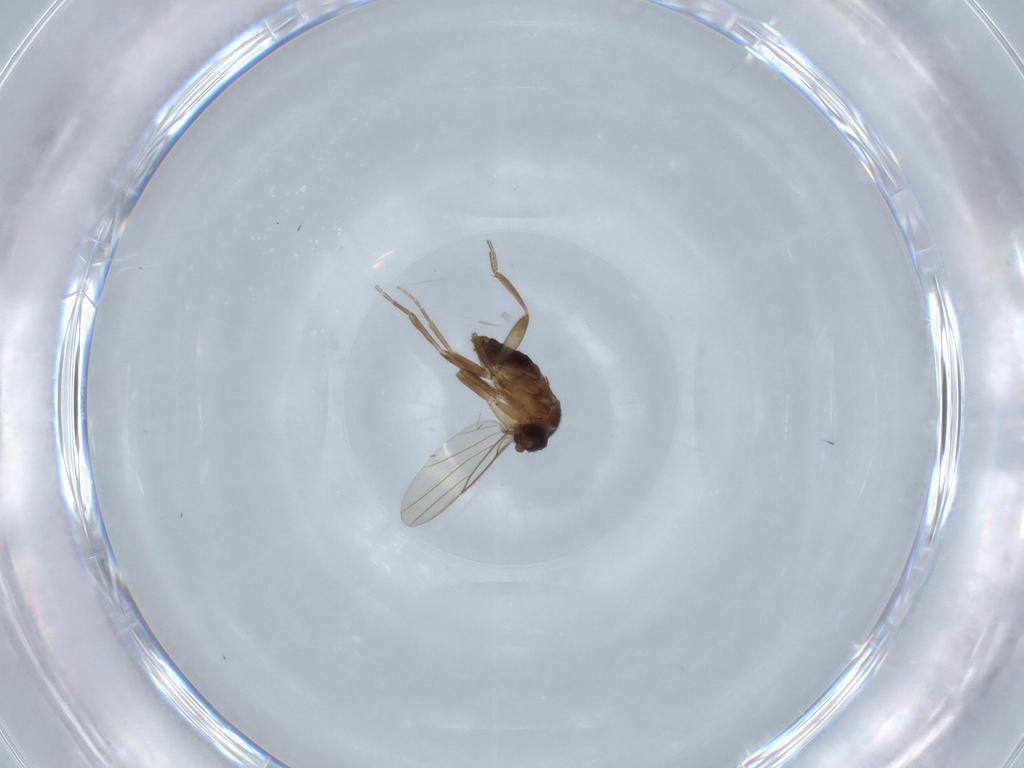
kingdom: Animalia
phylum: Arthropoda
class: Insecta
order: Diptera
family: Phoridae
